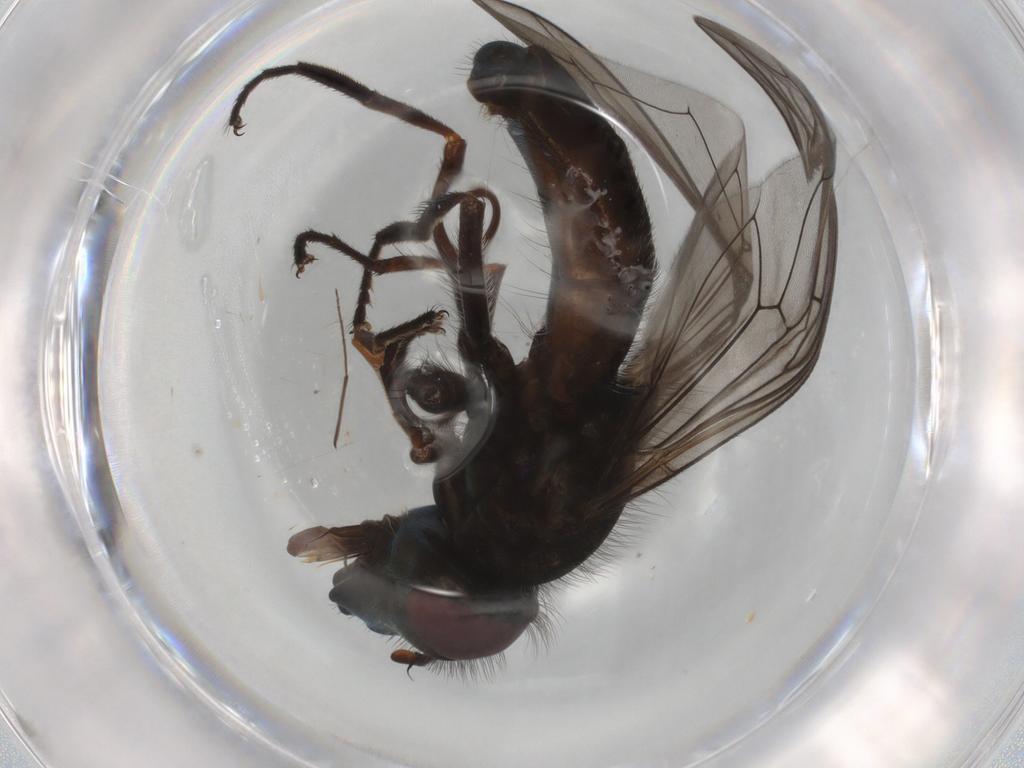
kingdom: Animalia
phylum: Arthropoda
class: Insecta
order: Diptera
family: Syrphidae
